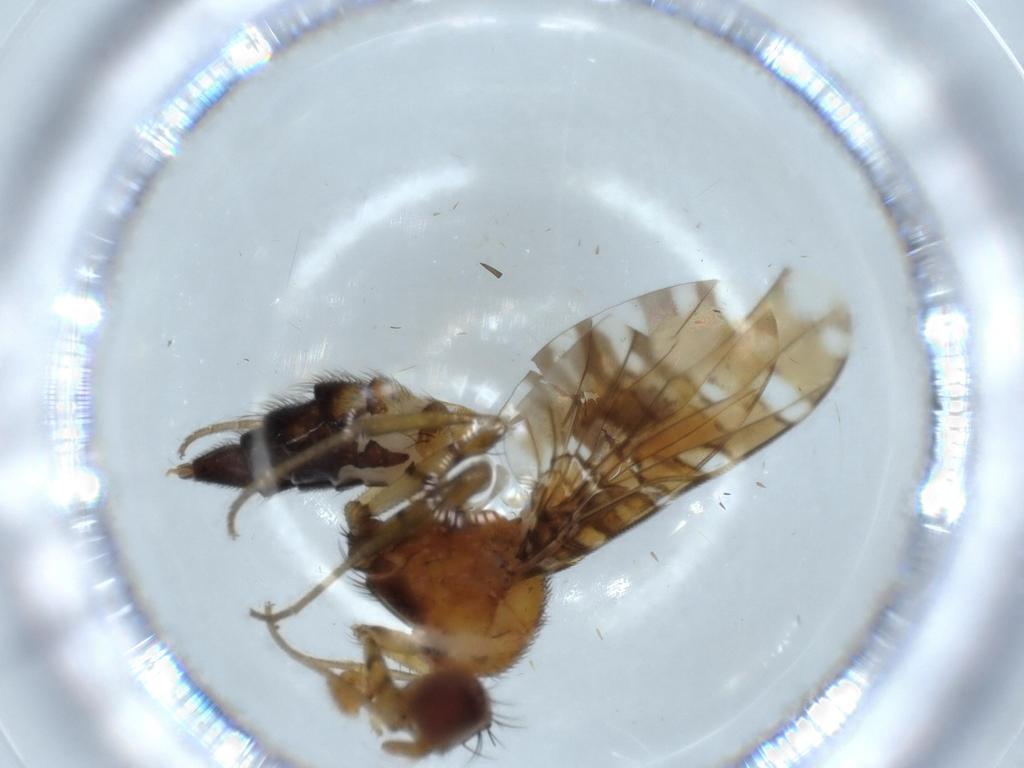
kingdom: Animalia
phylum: Arthropoda
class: Insecta
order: Diptera
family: Ulidiidae
